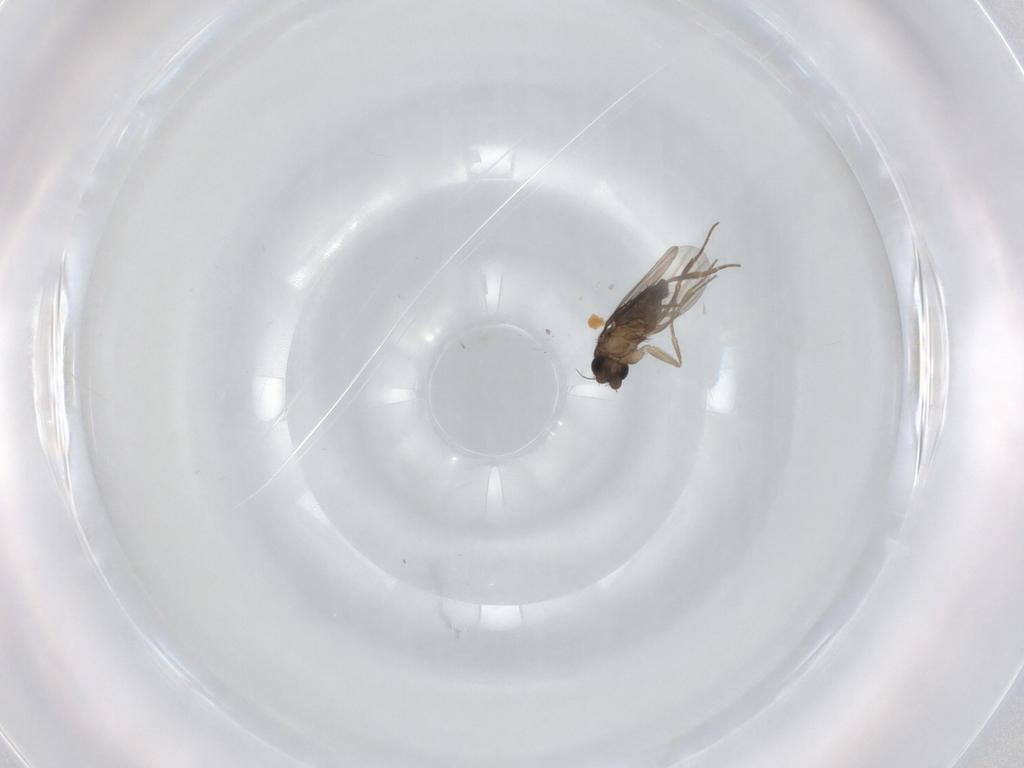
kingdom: Animalia
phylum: Arthropoda
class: Insecta
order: Diptera
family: Limoniidae
